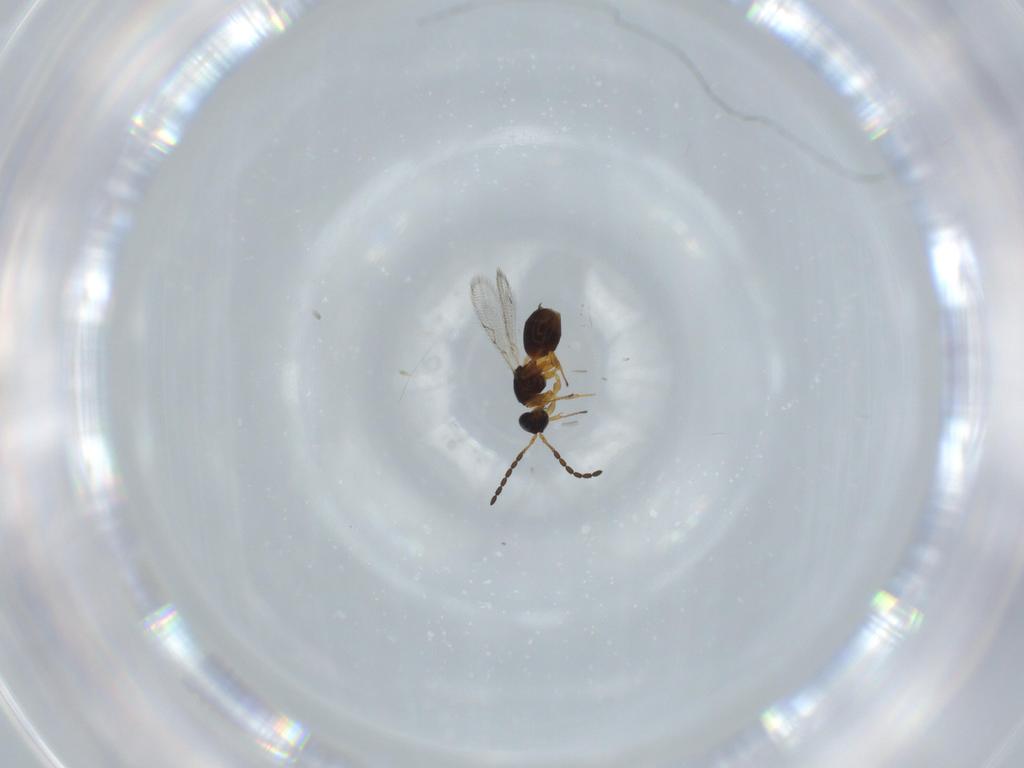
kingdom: Animalia
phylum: Arthropoda
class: Insecta
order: Hymenoptera
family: Figitidae
